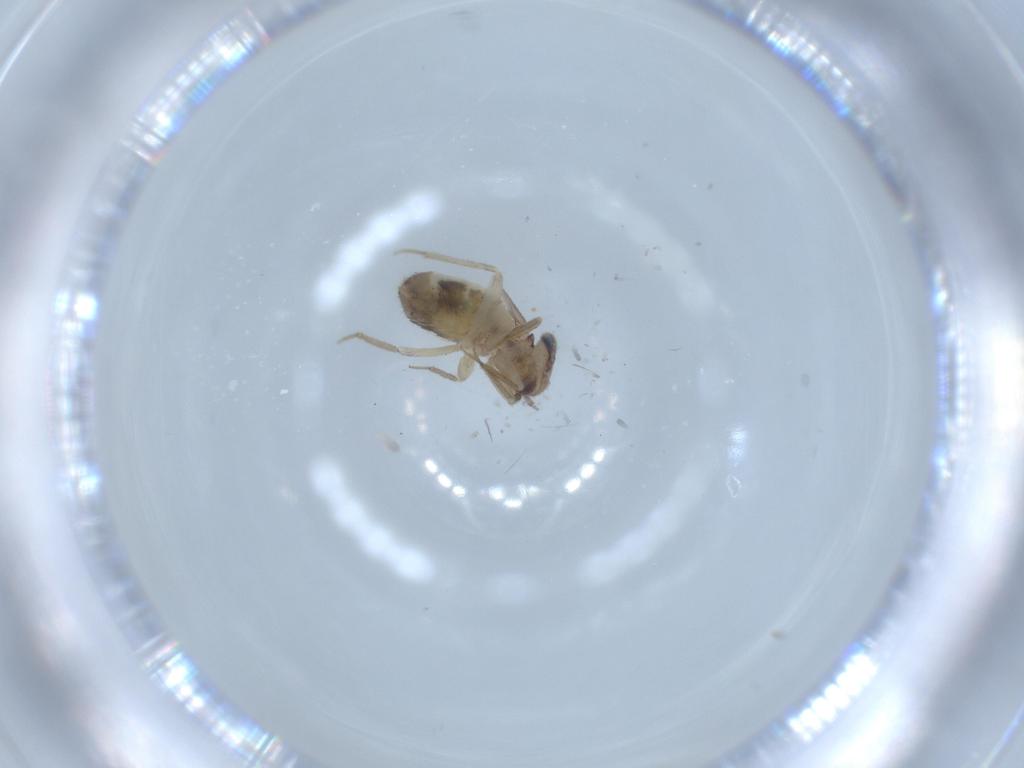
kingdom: Animalia
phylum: Arthropoda
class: Insecta
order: Psocodea
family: Lepidopsocidae
